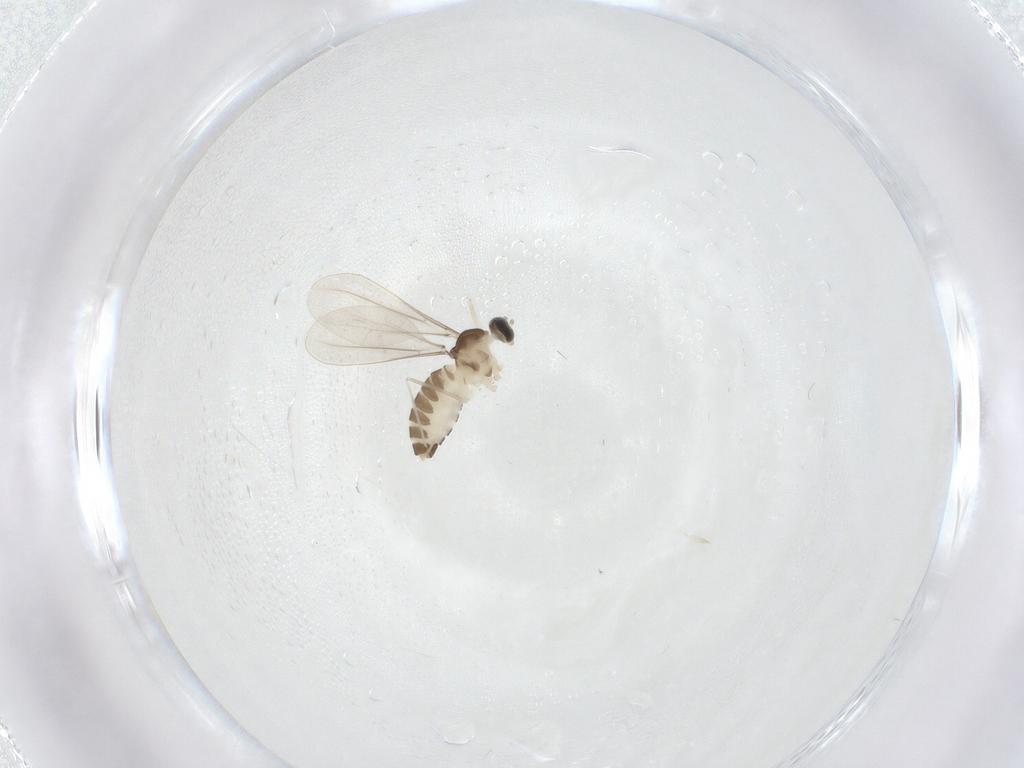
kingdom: Animalia
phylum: Arthropoda
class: Insecta
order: Diptera
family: Cecidomyiidae
